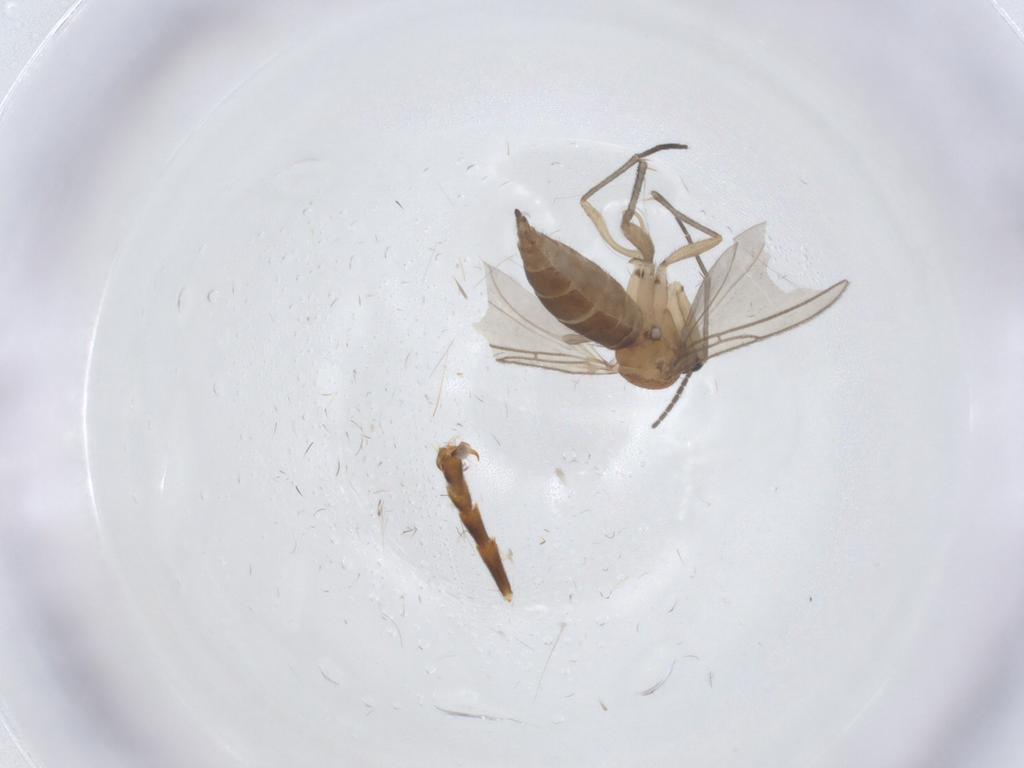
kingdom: Animalia
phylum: Arthropoda
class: Insecta
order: Diptera
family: Sciaridae
